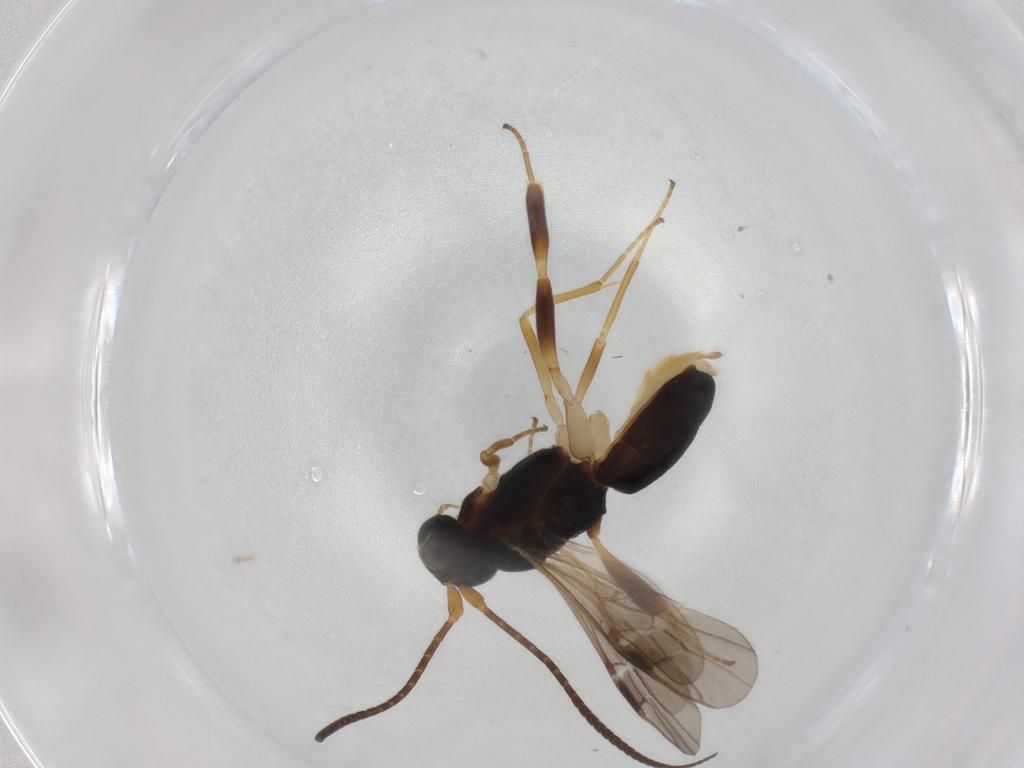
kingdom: Animalia
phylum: Arthropoda
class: Insecta
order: Hymenoptera
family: Braconidae
